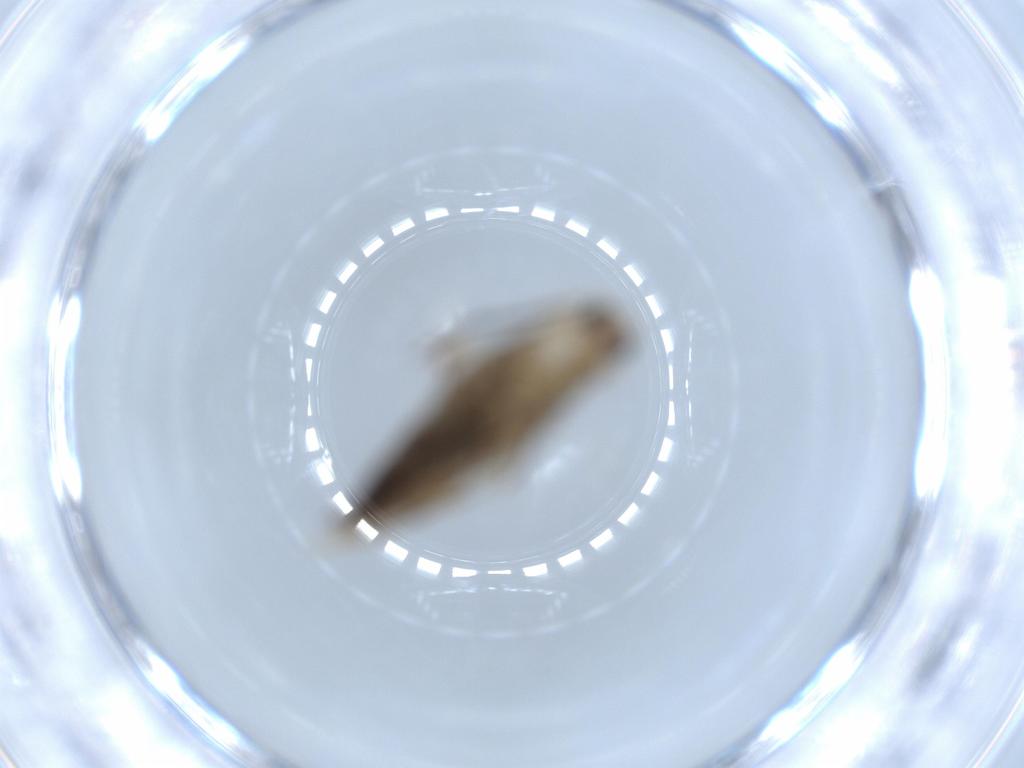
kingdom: Animalia
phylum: Arthropoda
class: Insecta
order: Lepidoptera
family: Tineidae
